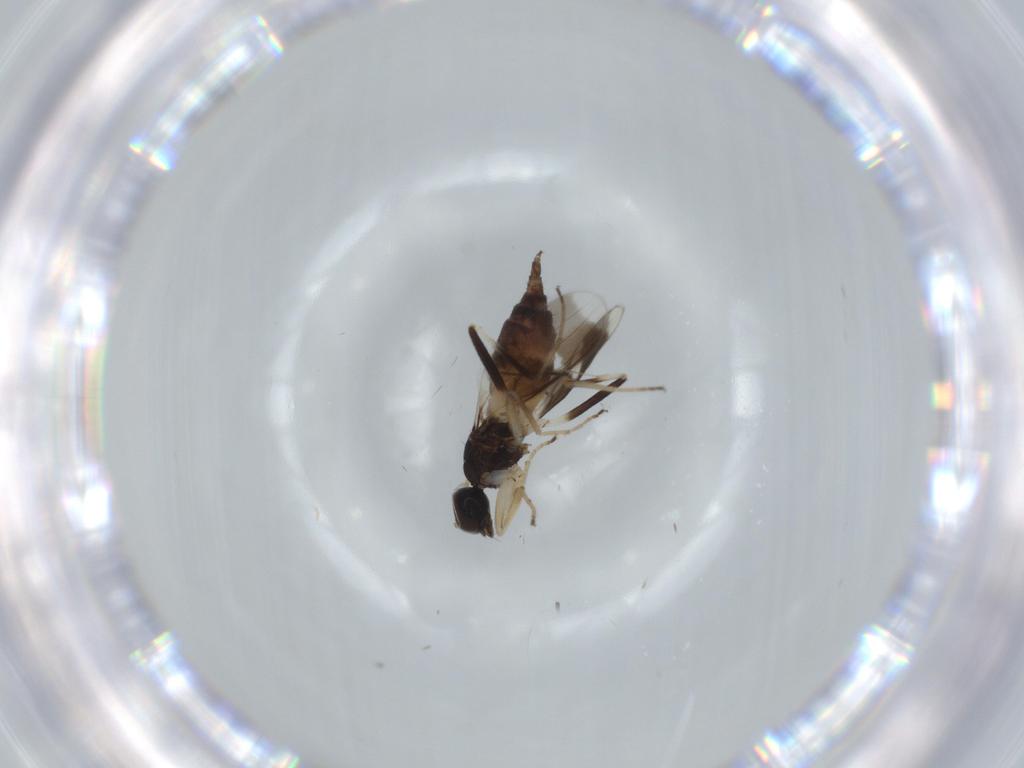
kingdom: Animalia
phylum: Arthropoda
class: Insecta
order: Diptera
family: Hybotidae
